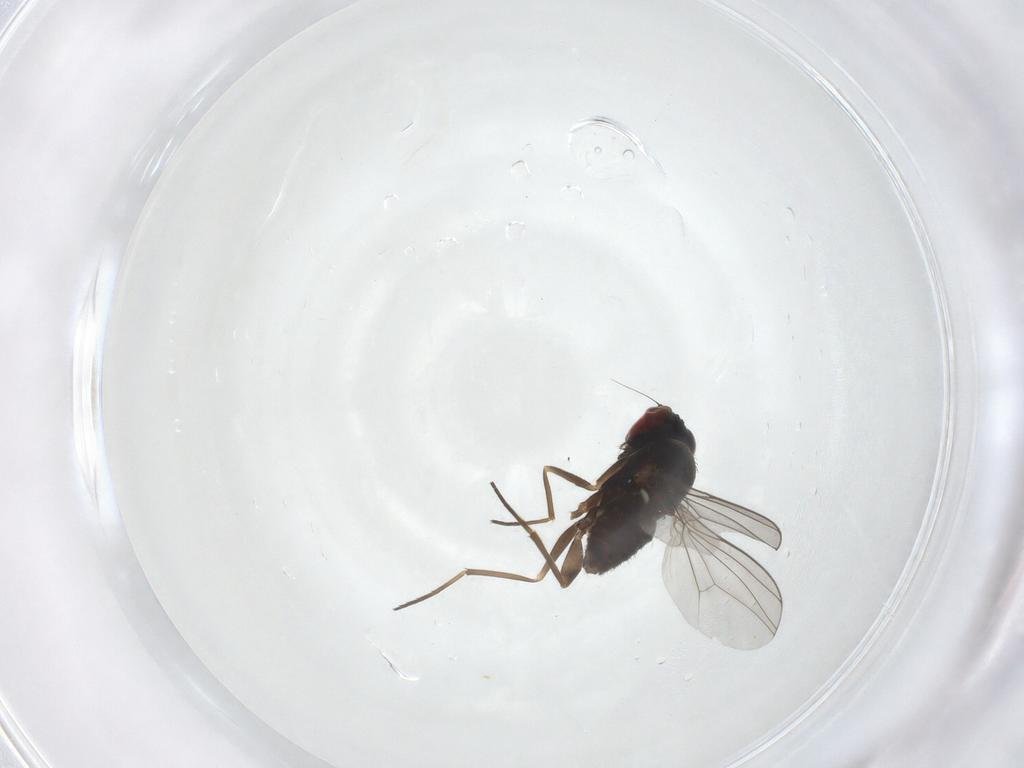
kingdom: Animalia
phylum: Arthropoda
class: Insecta
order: Diptera
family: Dolichopodidae
